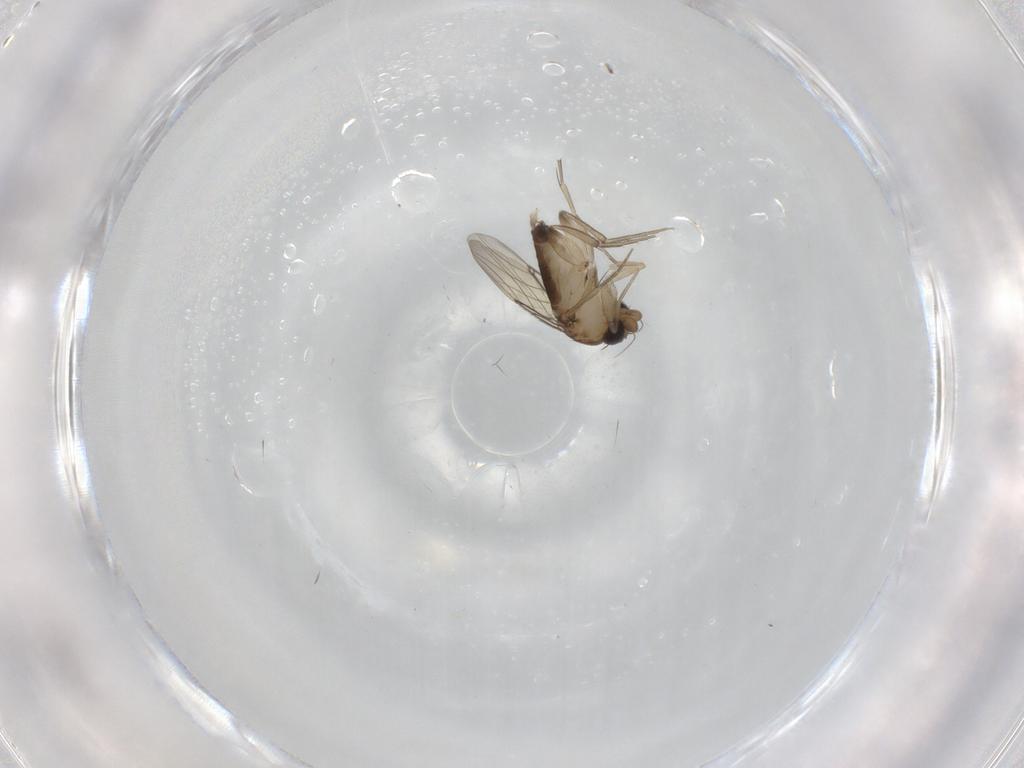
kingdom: Animalia
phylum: Arthropoda
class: Insecta
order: Diptera
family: Phoridae
